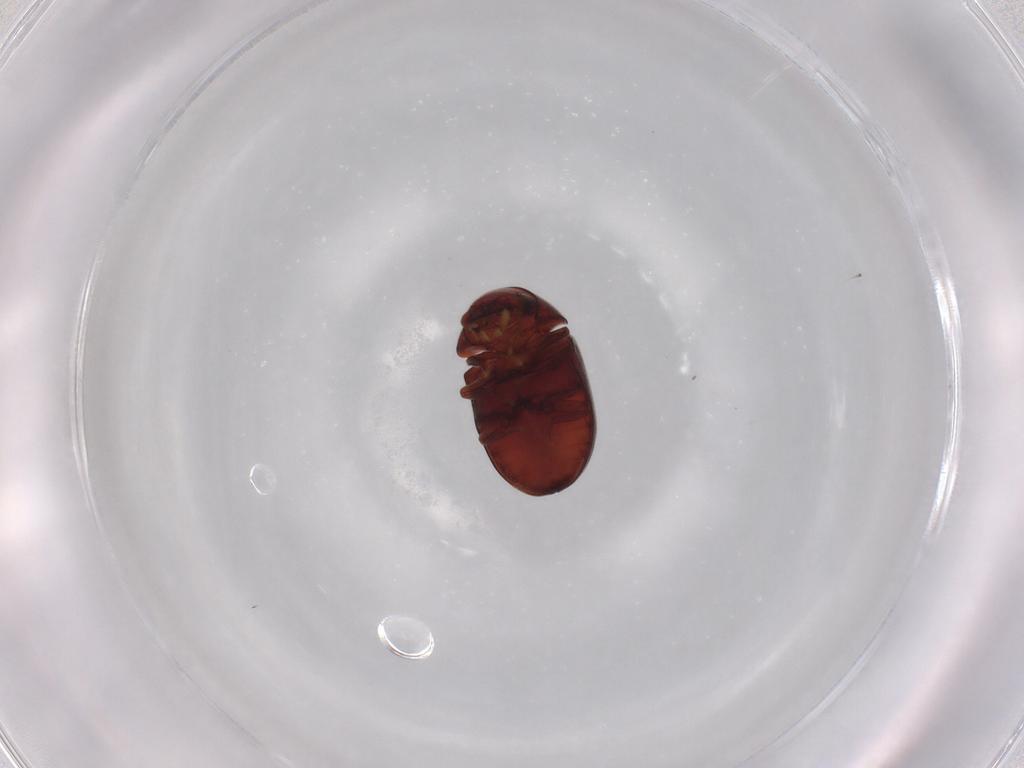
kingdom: Animalia
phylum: Arthropoda
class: Insecta
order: Coleoptera
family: Ptinidae
